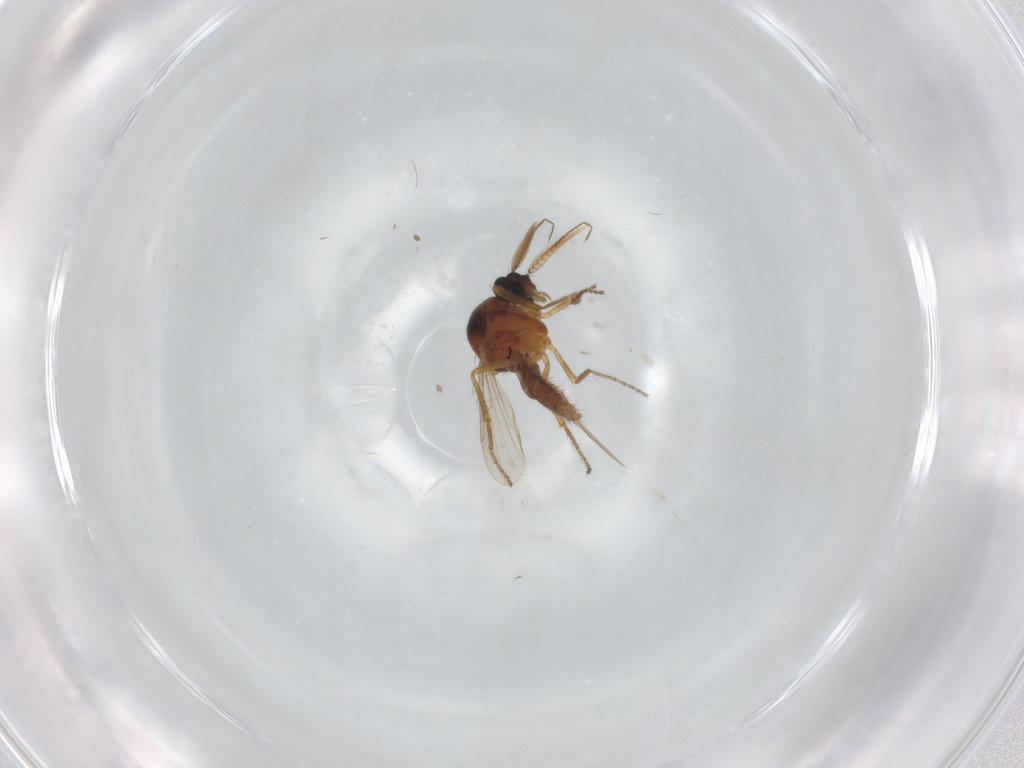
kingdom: Animalia
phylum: Arthropoda
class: Insecta
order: Diptera
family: Ceratopogonidae
